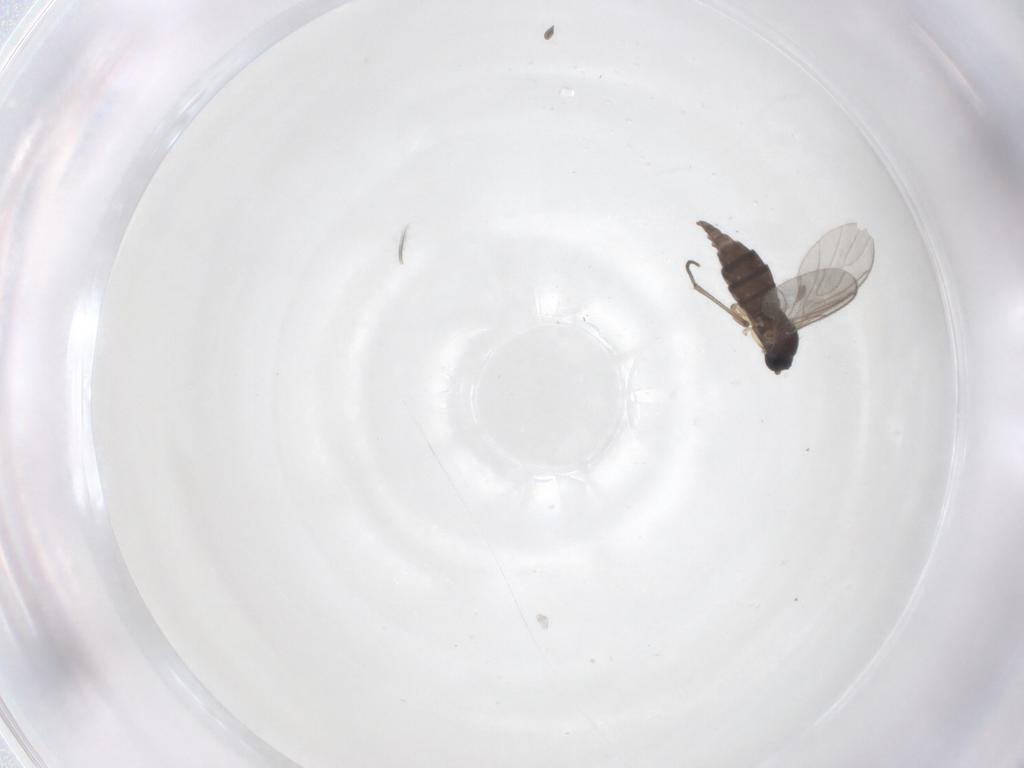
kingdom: Animalia
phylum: Arthropoda
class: Insecta
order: Diptera
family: Sciaridae
